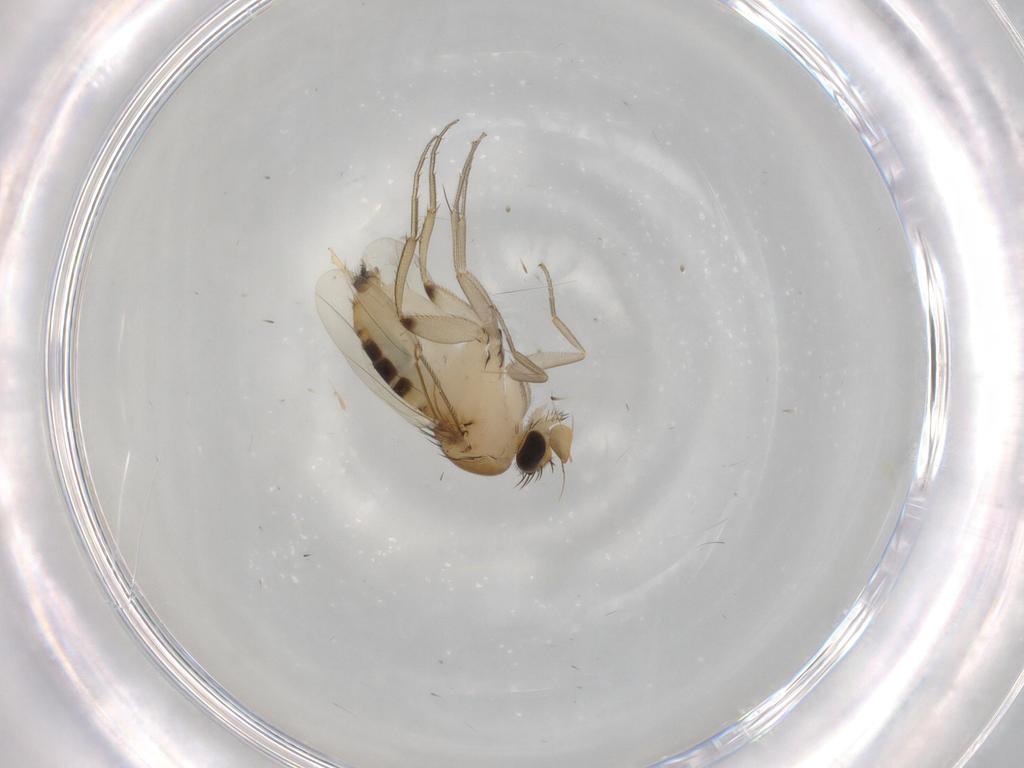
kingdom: Animalia
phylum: Arthropoda
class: Insecta
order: Diptera
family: Phoridae
